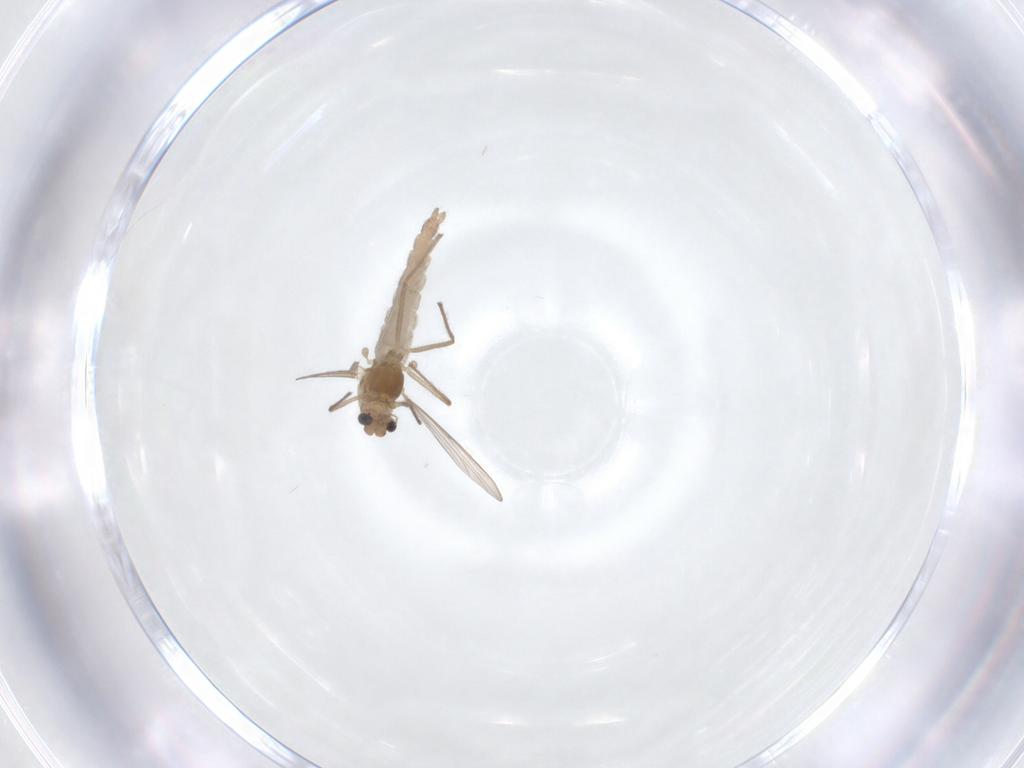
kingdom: Animalia
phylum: Arthropoda
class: Insecta
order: Diptera
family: Chironomidae
